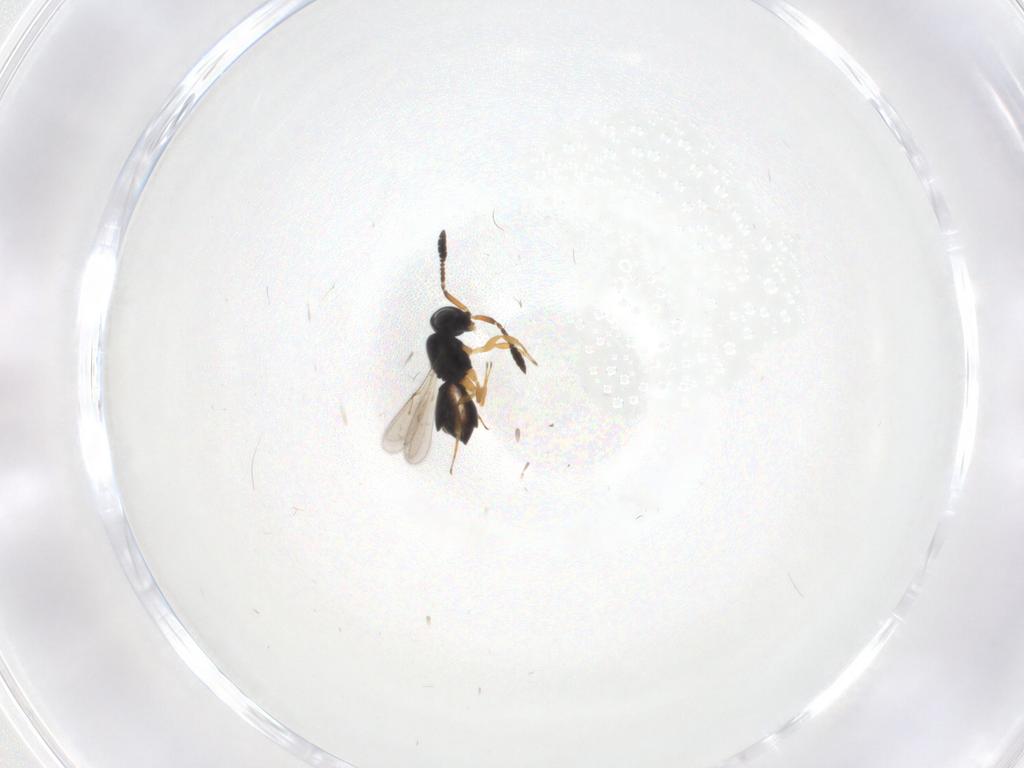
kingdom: Animalia
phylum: Arthropoda
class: Insecta
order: Hymenoptera
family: Scelionidae
